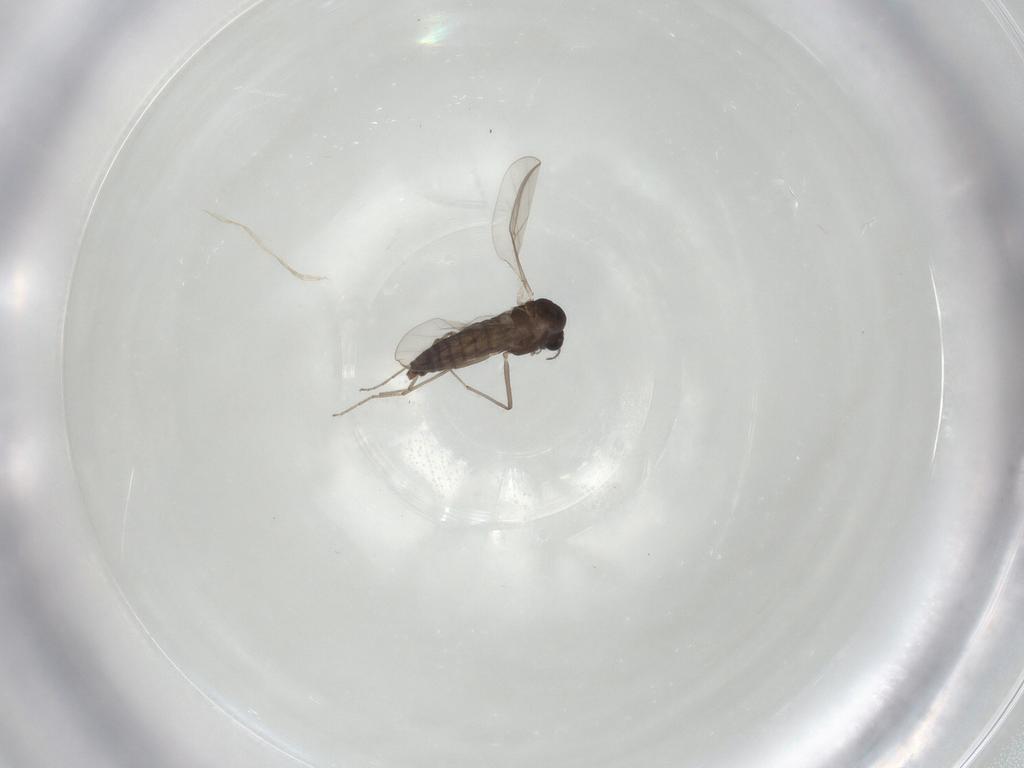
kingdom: Animalia
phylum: Arthropoda
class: Insecta
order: Diptera
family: Chironomidae
